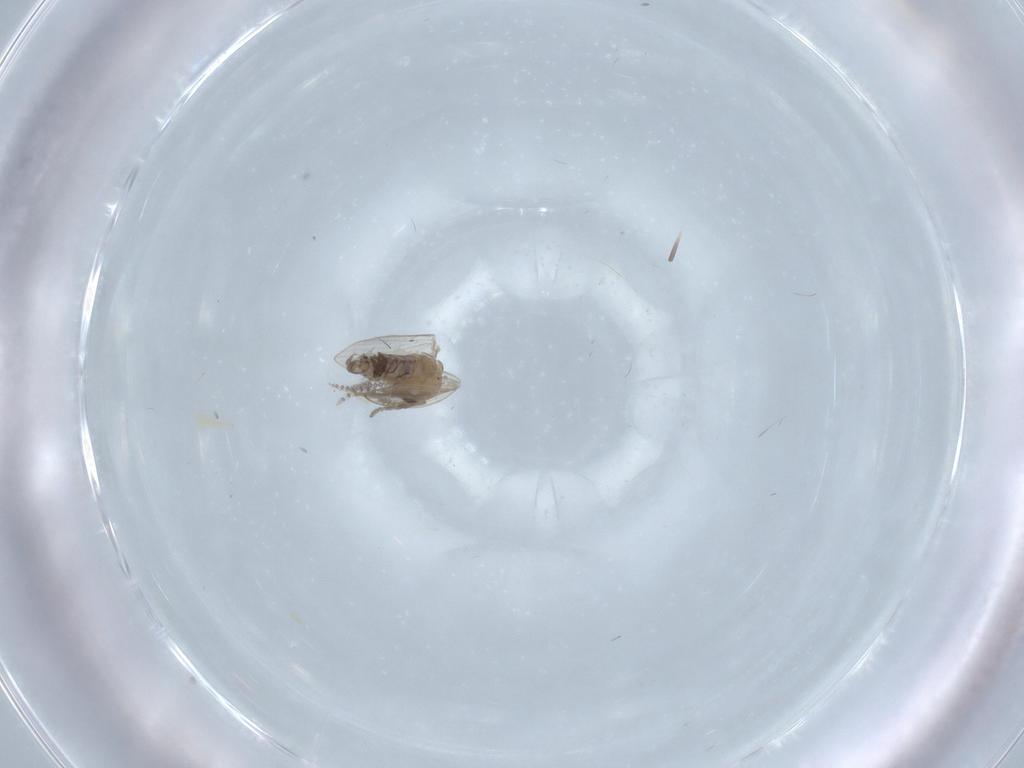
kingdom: Animalia
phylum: Arthropoda
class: Insecta
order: Diptera
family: Psychodidae
